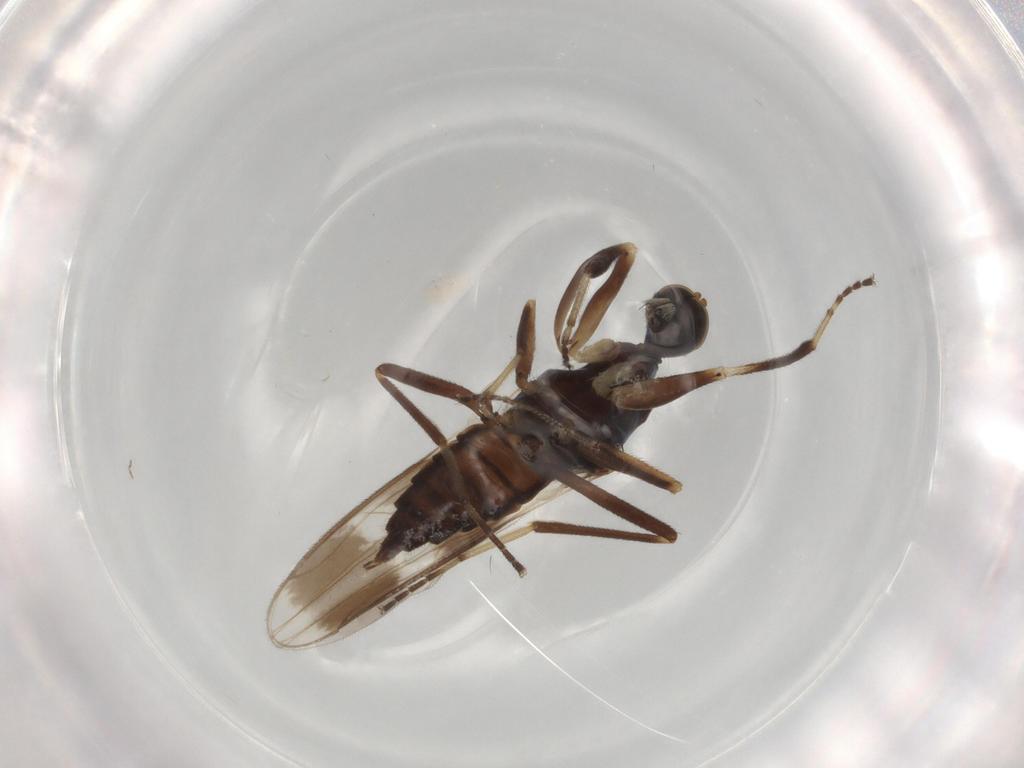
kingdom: Animalia
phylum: Arthropoda
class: Insecta
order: Diptera
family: Hybotidae
